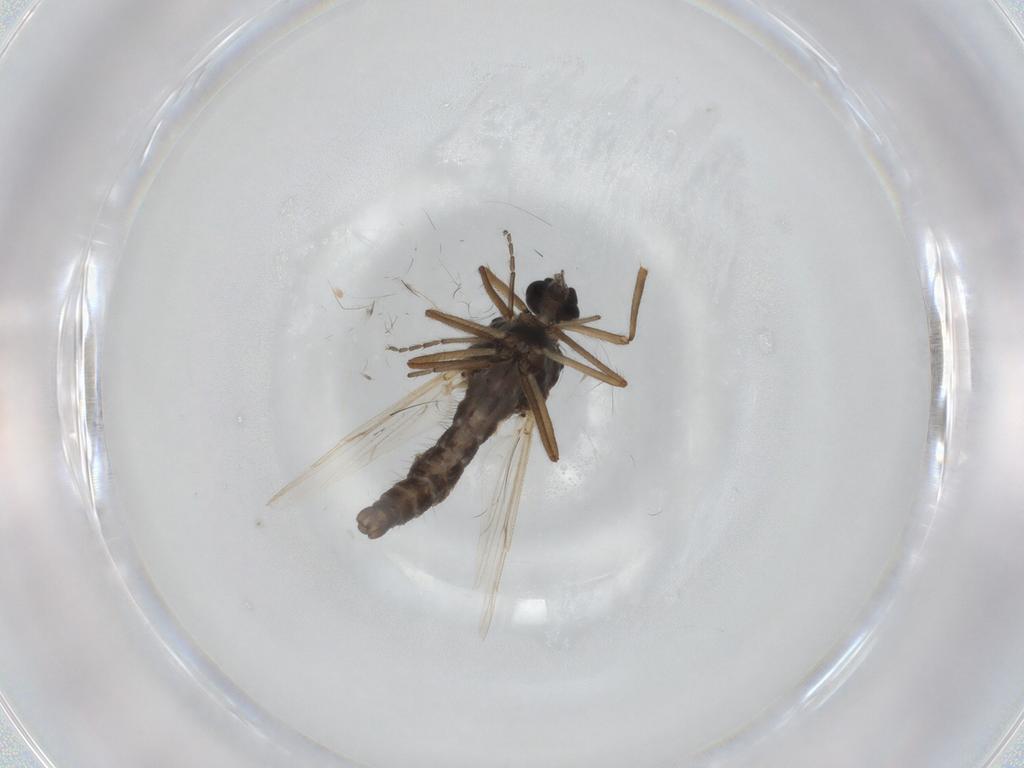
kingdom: Animalia
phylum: Arthropoda
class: Insecta
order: Diptera
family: Ceratopogonidae
